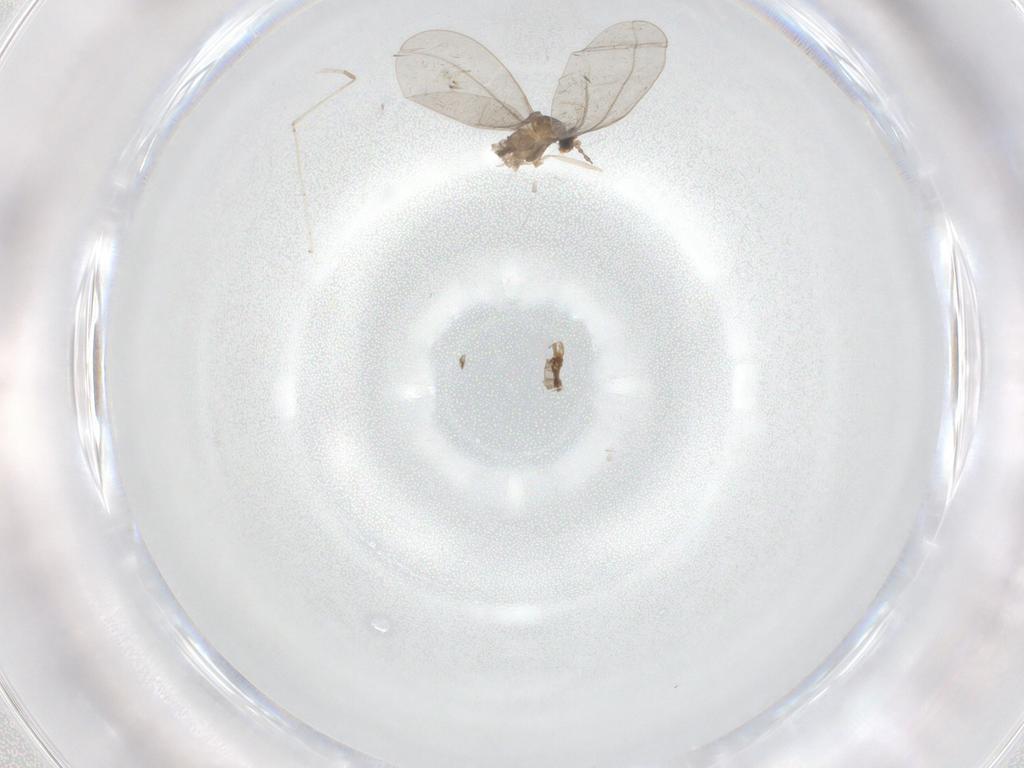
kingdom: Animalia
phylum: Arthropoda
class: Insecta
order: Diptera
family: Cecidomyiidae
